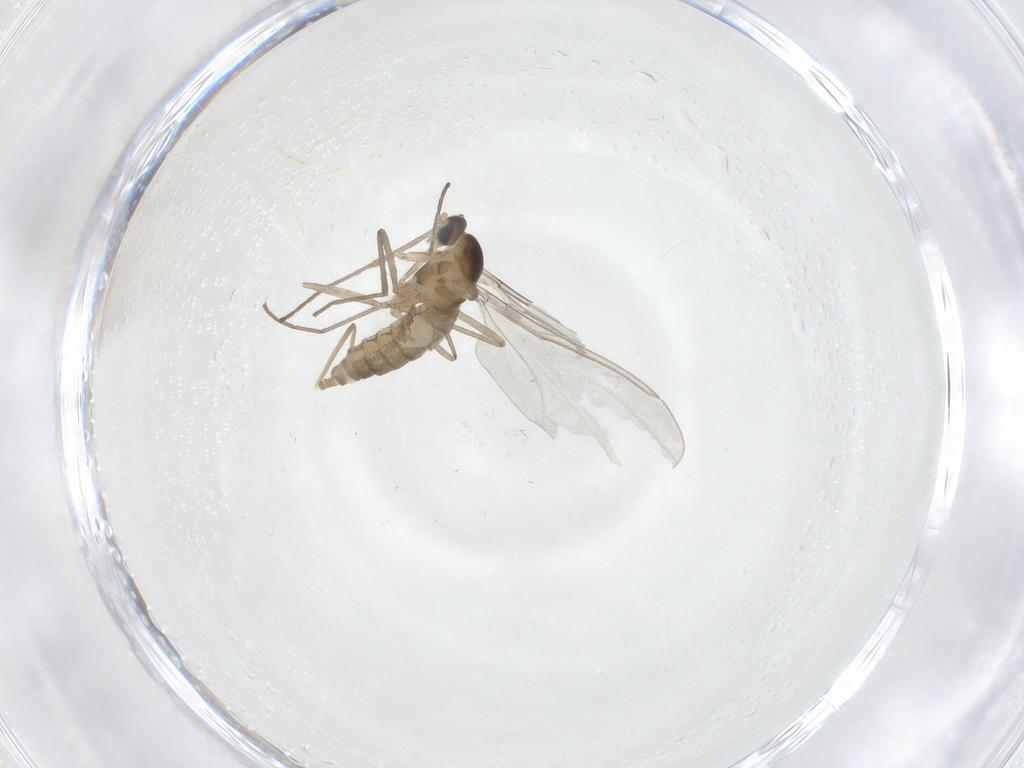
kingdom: Animalia
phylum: Arthropoda
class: Insecta
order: Diptera
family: Cecidomyiidae
